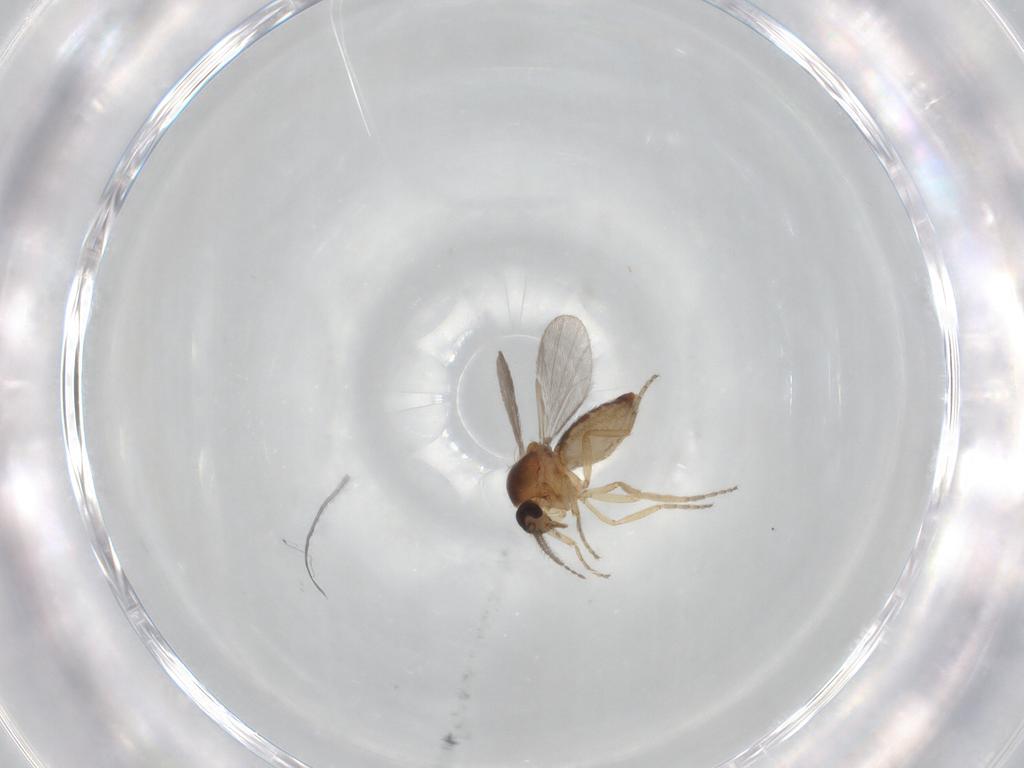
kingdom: Animalia
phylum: Arthropoda
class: Insecta
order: Diptera
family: Ceratopogonidae
